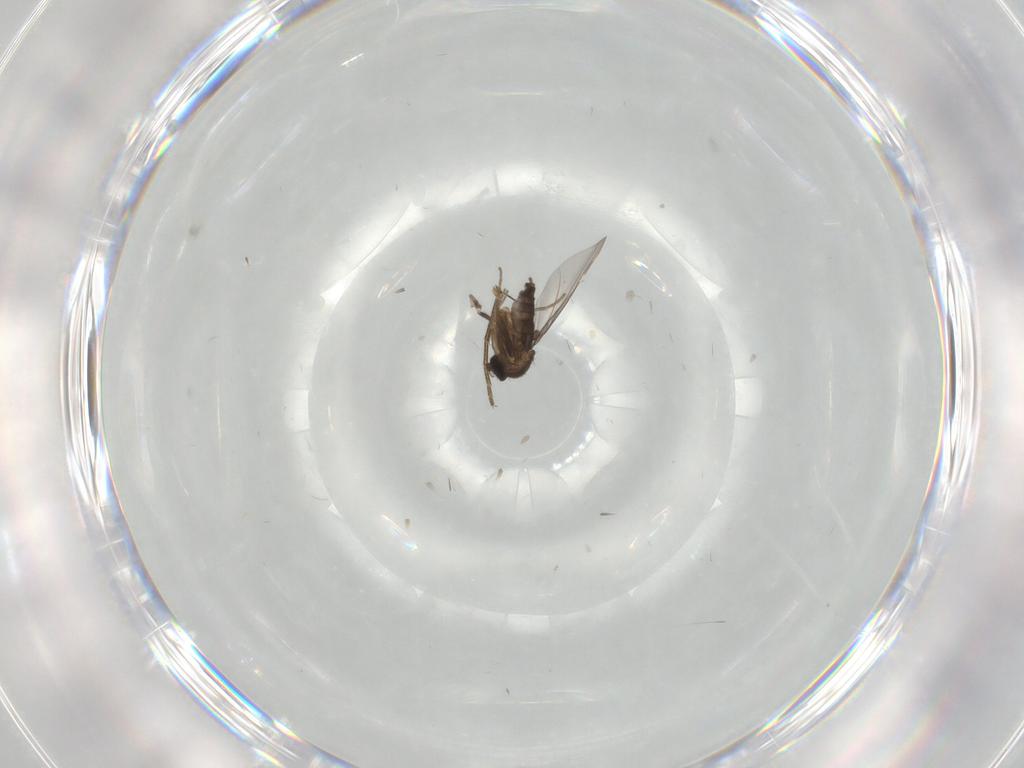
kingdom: Animalia
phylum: Arthropoda
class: Insecta
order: Diptera
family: Phoridae
